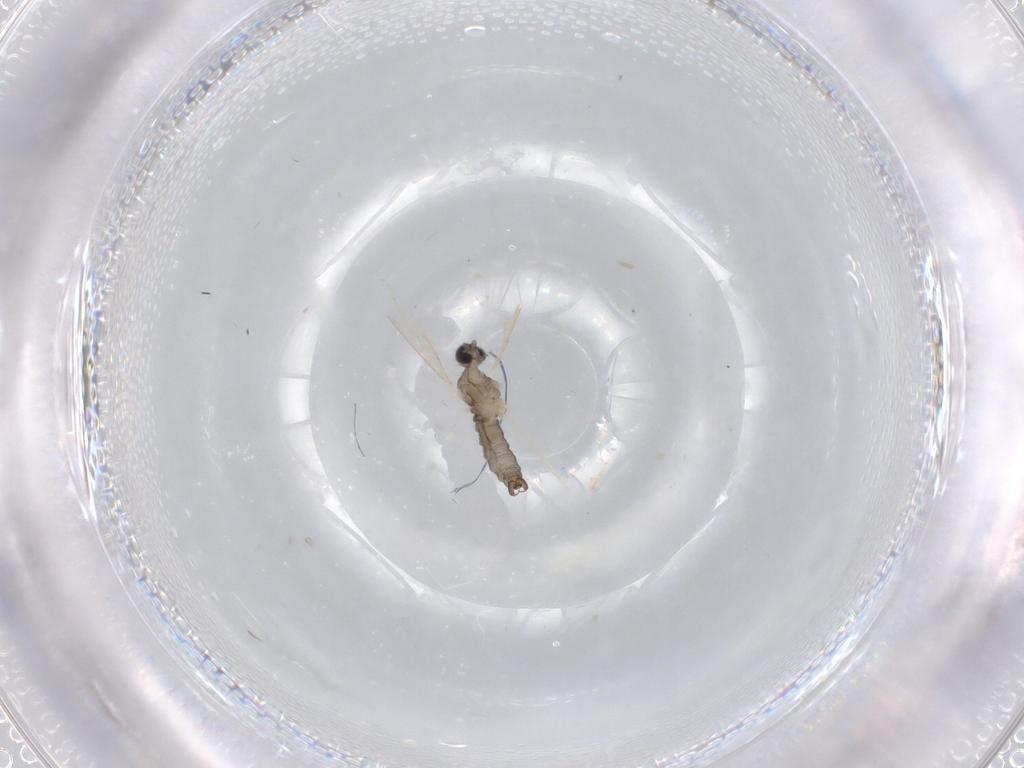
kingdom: Animalia
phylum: Arthropoda
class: Insecta
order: Diptera
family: Cecidomyiidae
